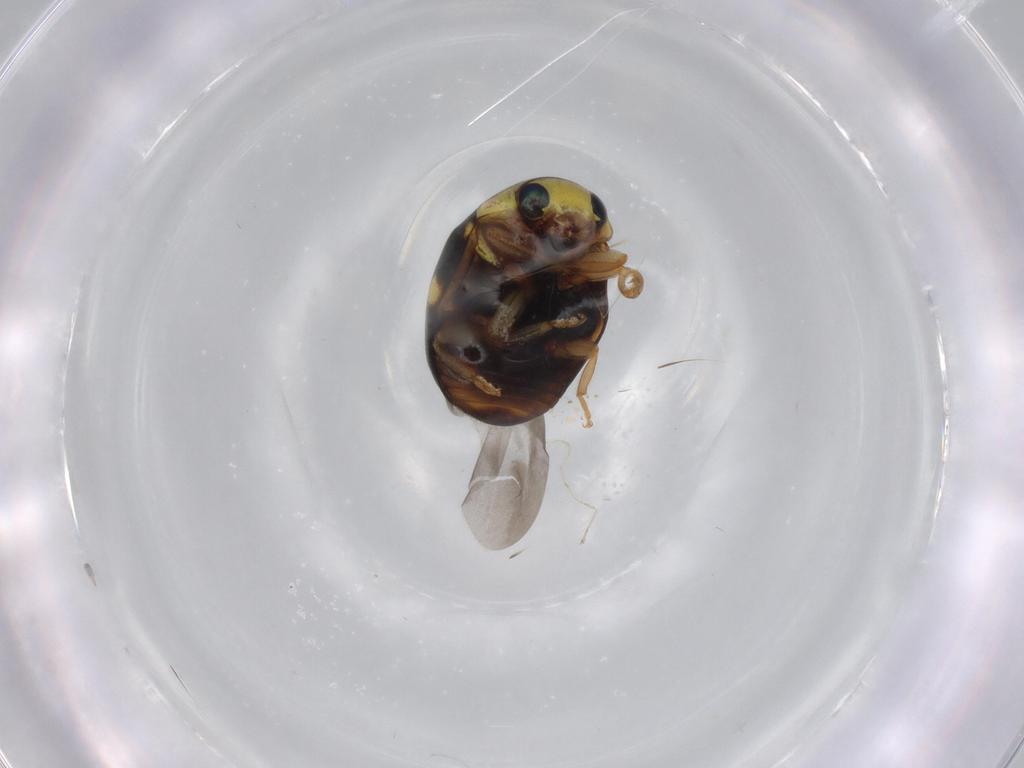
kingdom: Animalia
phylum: Arthropoda
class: Insecta
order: Coleoptera
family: Coccinellidae
